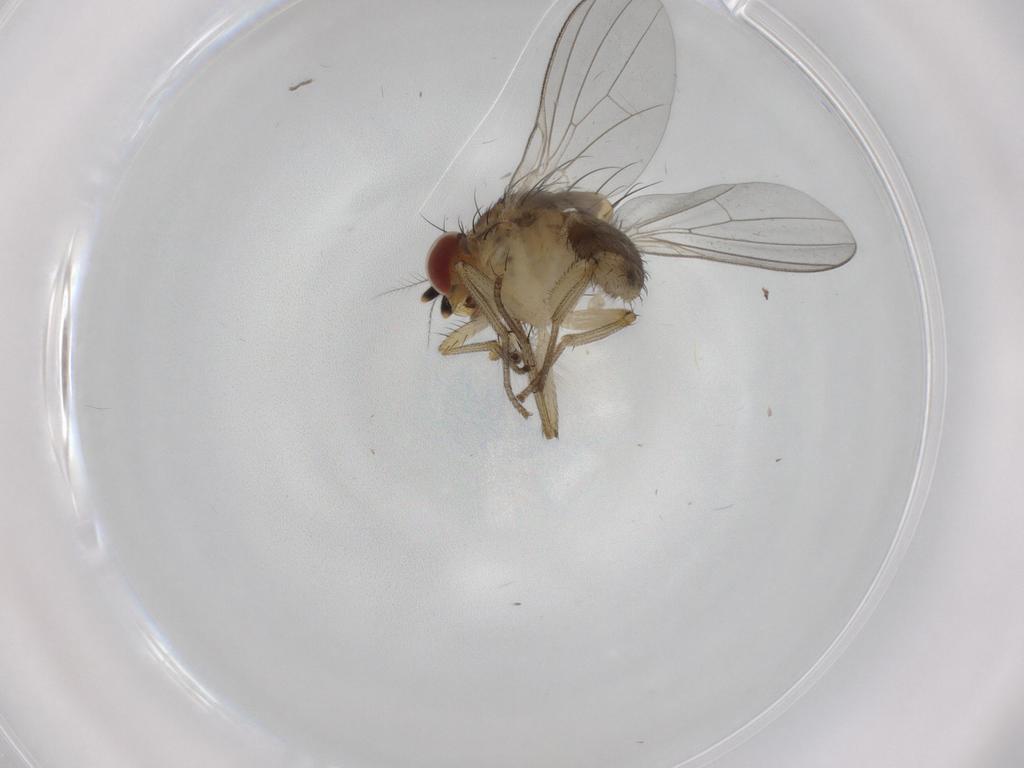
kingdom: Animalia
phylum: Arthropoda
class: Insecta
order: Diptera
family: Lauxaniidae
